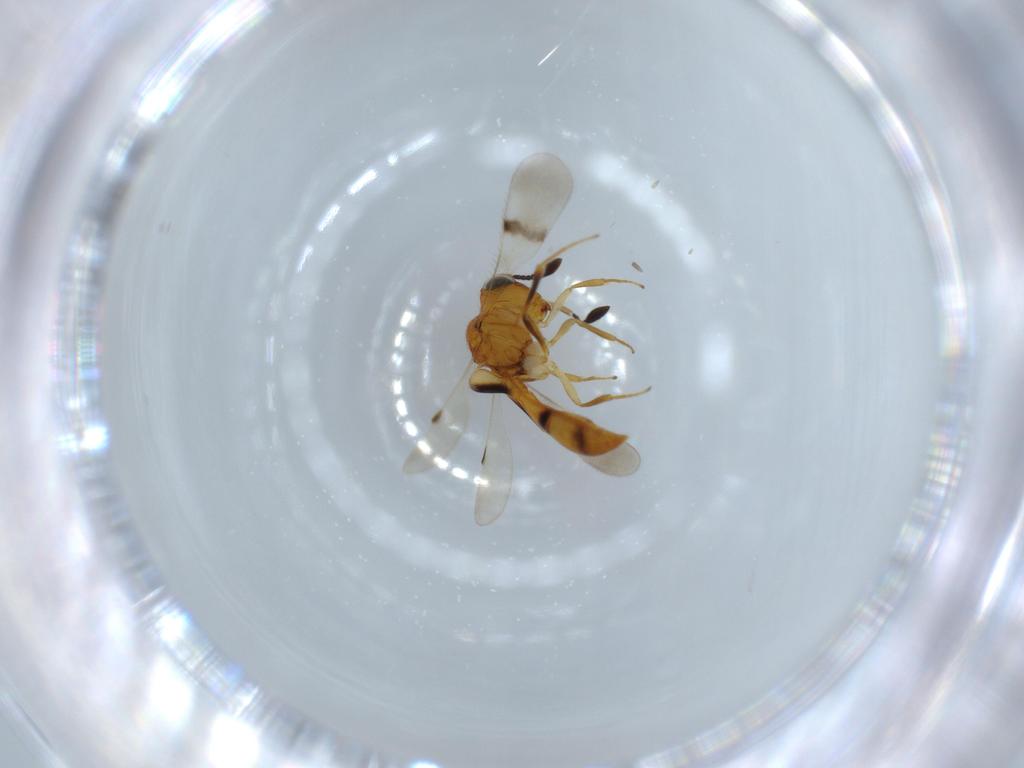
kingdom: Animalia
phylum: Arthropoda
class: Insecta
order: Hymenoptera
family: Scelionidae
